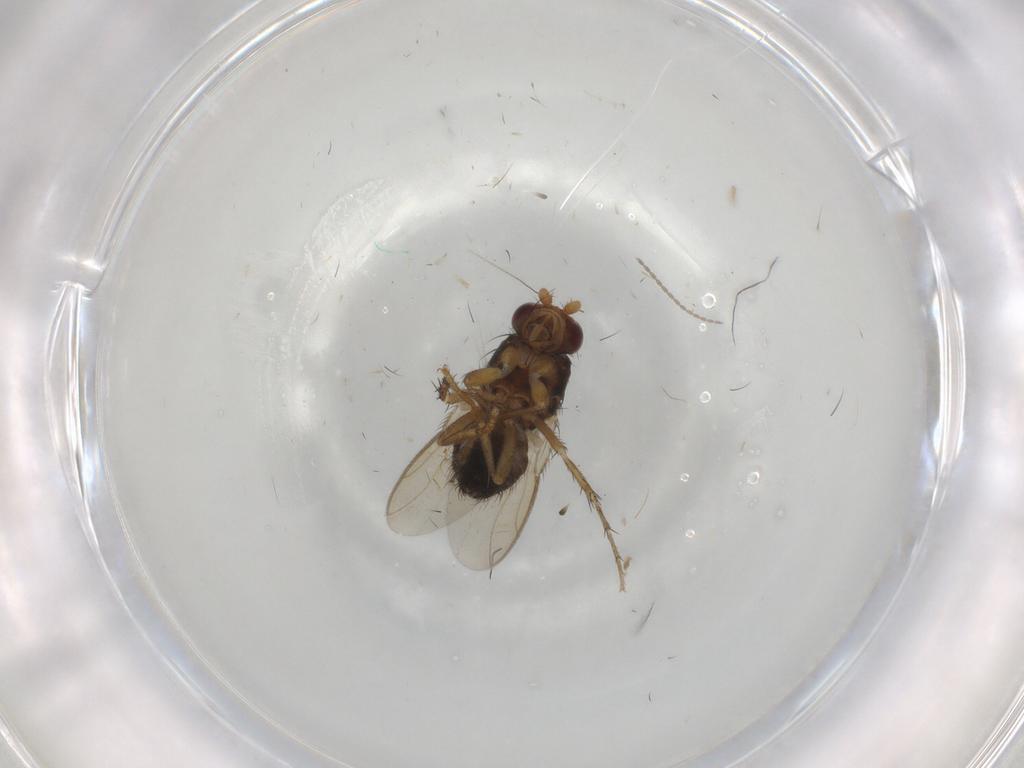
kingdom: Animalia
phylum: Arthropoda
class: Insecta
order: Diptera
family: Sphaeroceridae
